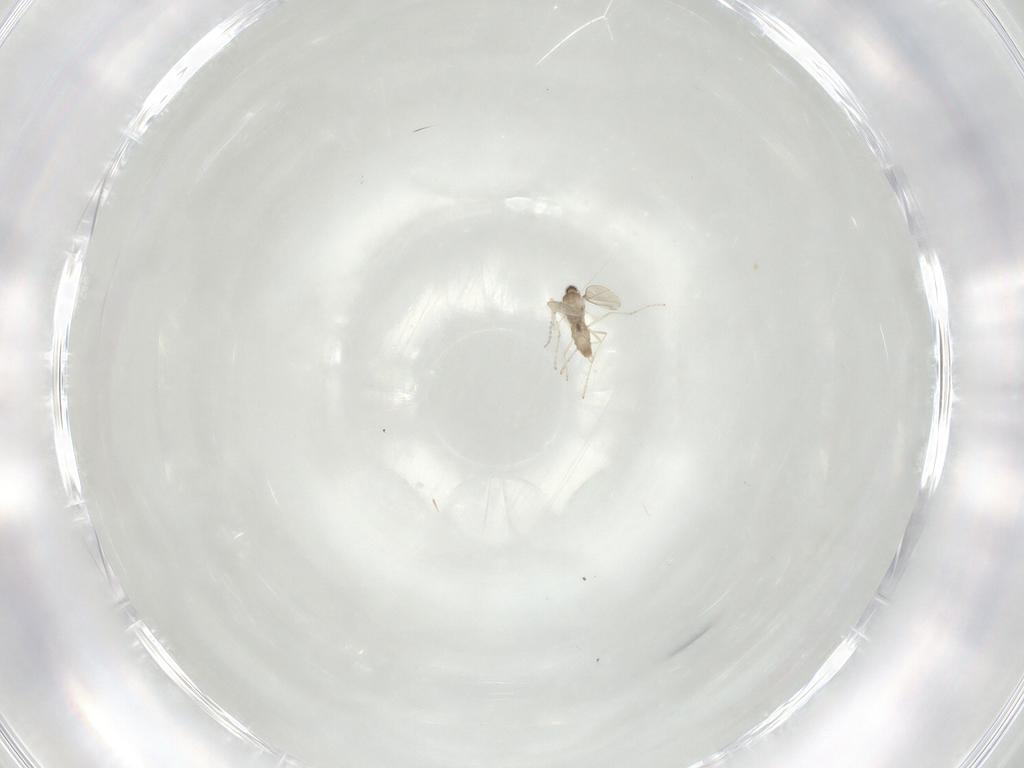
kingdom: Animalia
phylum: Arthropoda
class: Insecta
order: Diptera
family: Cecidomyiidae
